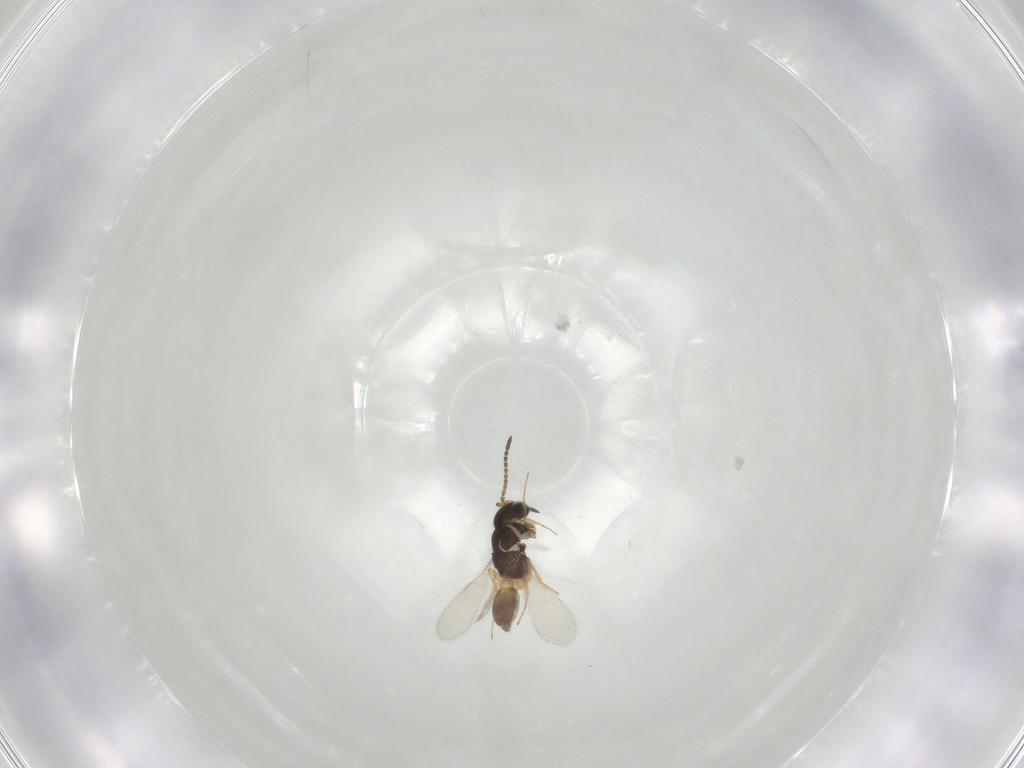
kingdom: Animalia
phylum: Arthropoda
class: Insecta
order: Hymenoptera
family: Scelionidae
